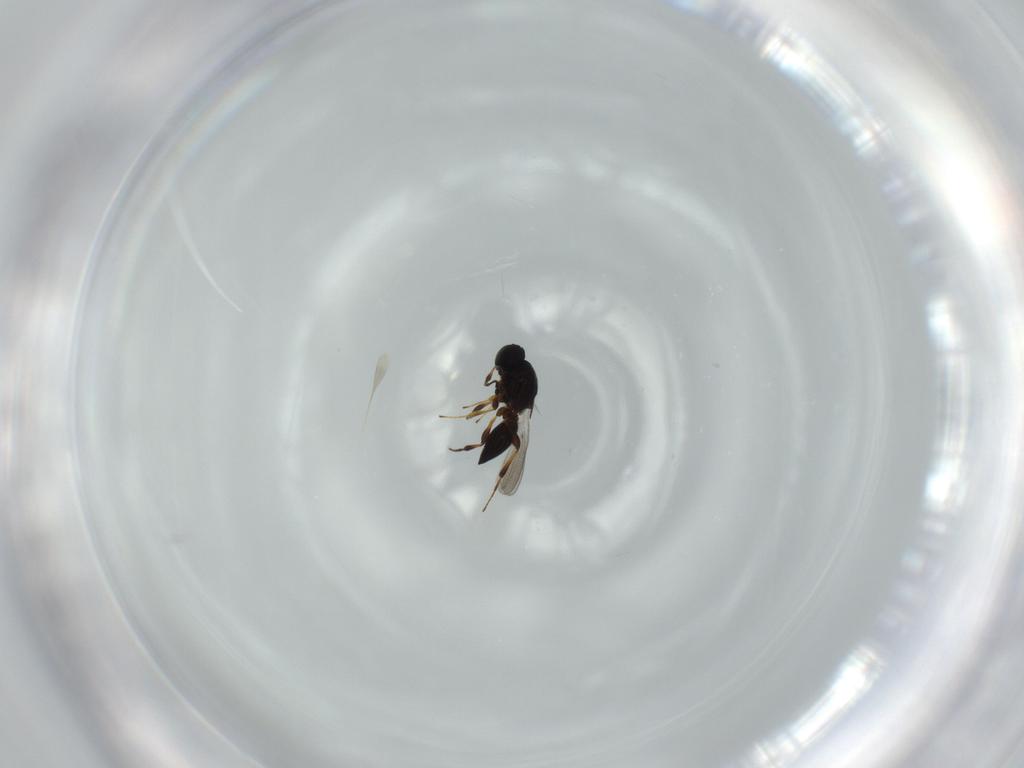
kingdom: Animalia
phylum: Arthropoda
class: Insecta
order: Hymenoptera
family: Platygastridae
